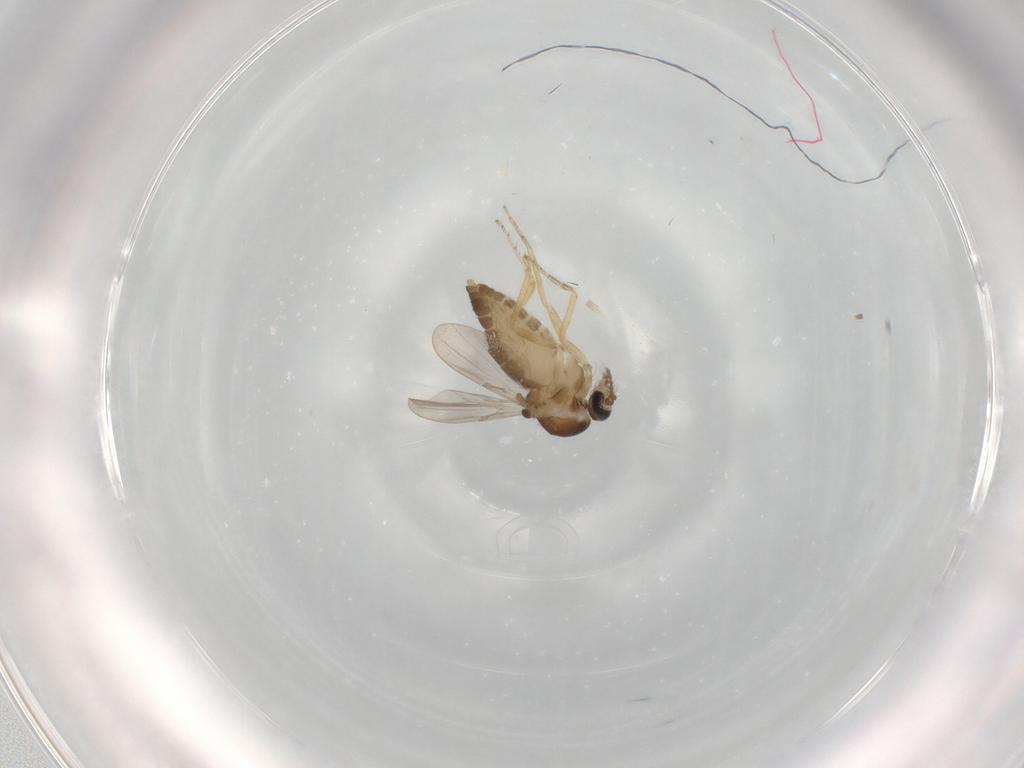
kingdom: Animalia
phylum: Arthropoda
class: Insecta
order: Diptera
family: Ceratopogonidae
